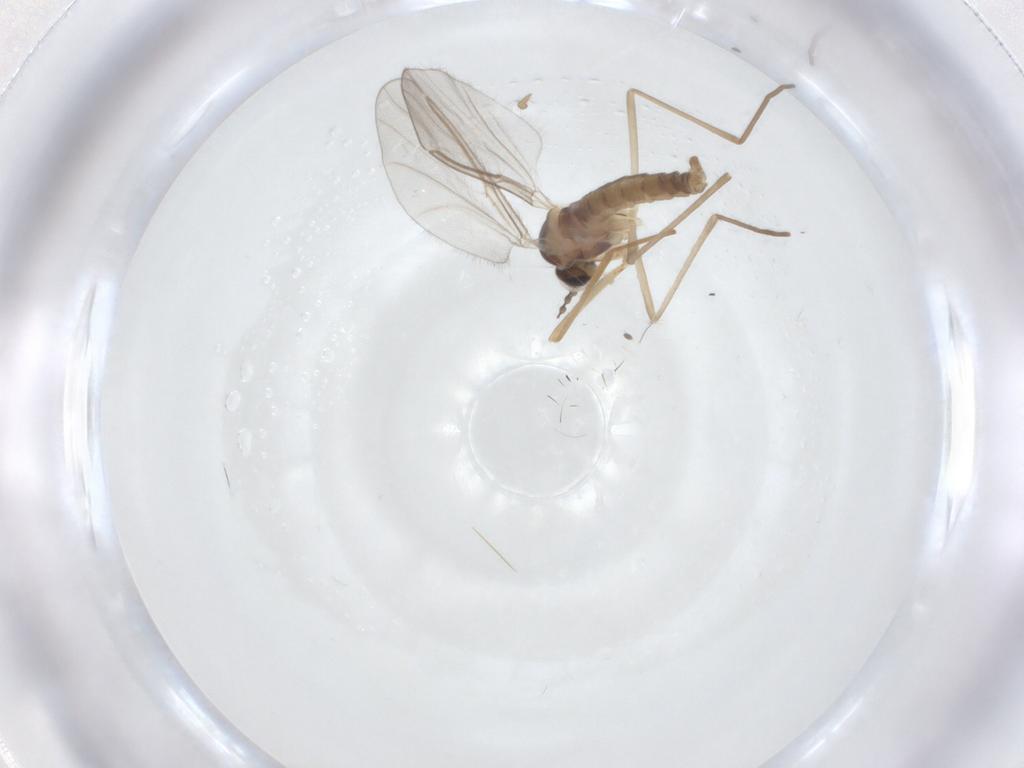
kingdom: Animalia
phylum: Arthropoda
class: Insecta
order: Diptera
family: Cecidomyiidae
